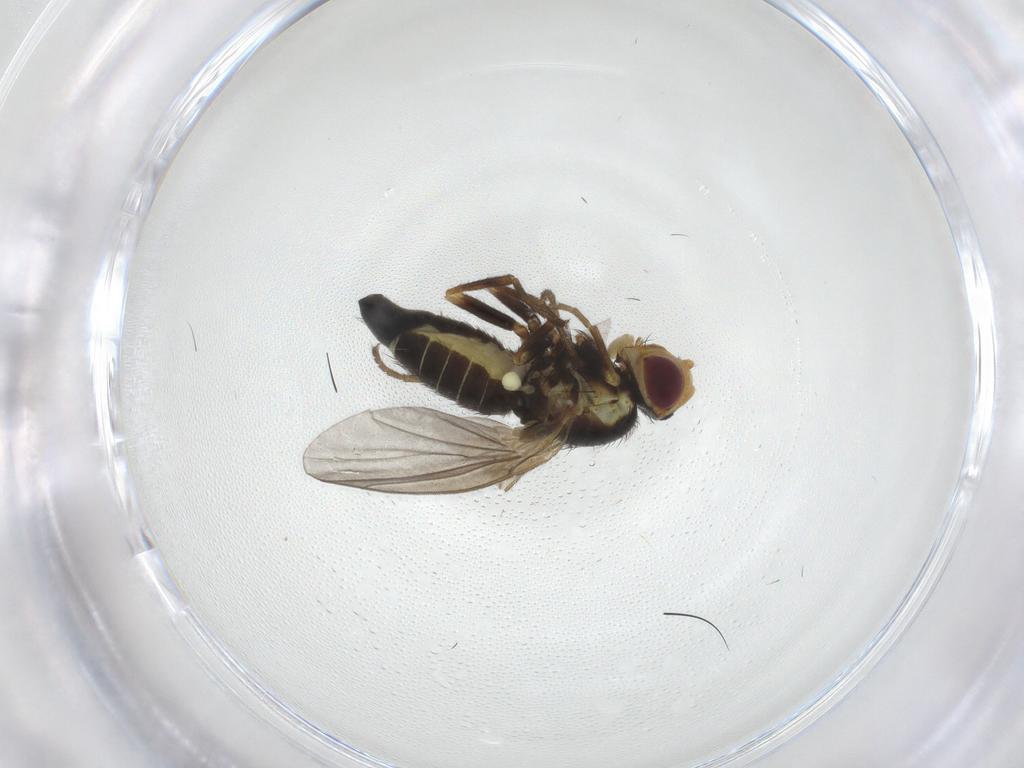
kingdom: Animalia
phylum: Arthropoda
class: Insecta
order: Diptera
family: Agromyzidae
